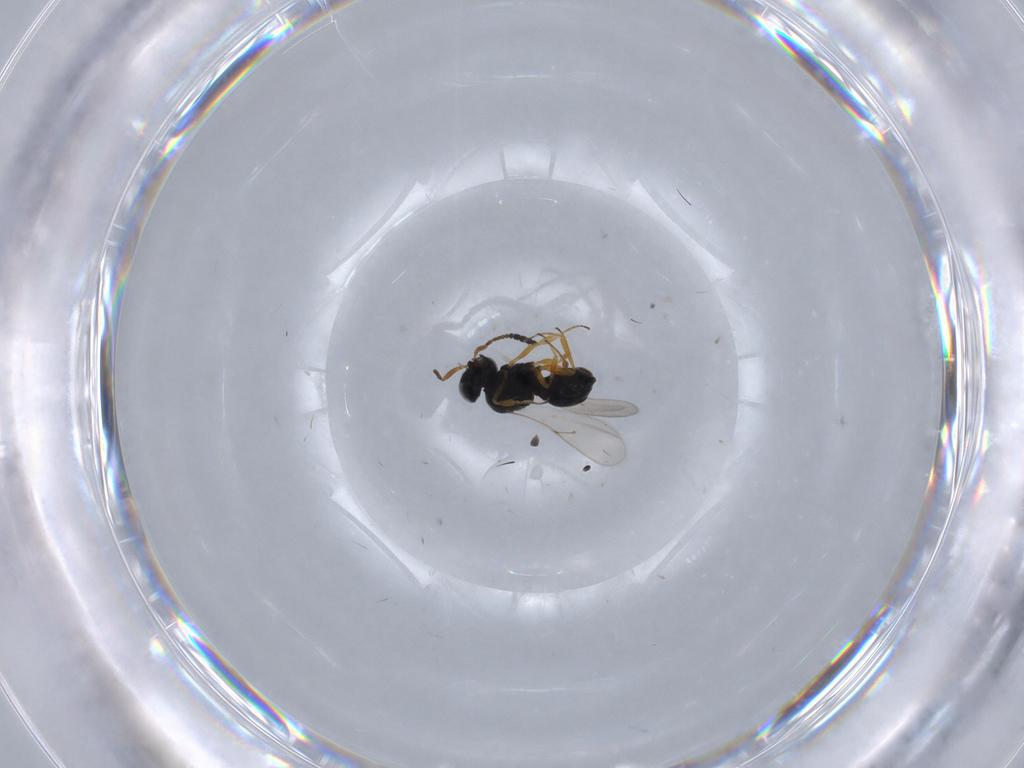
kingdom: Animalia
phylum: Arthropoda
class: Insecta
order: Hymenoptera
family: Scelionidae
